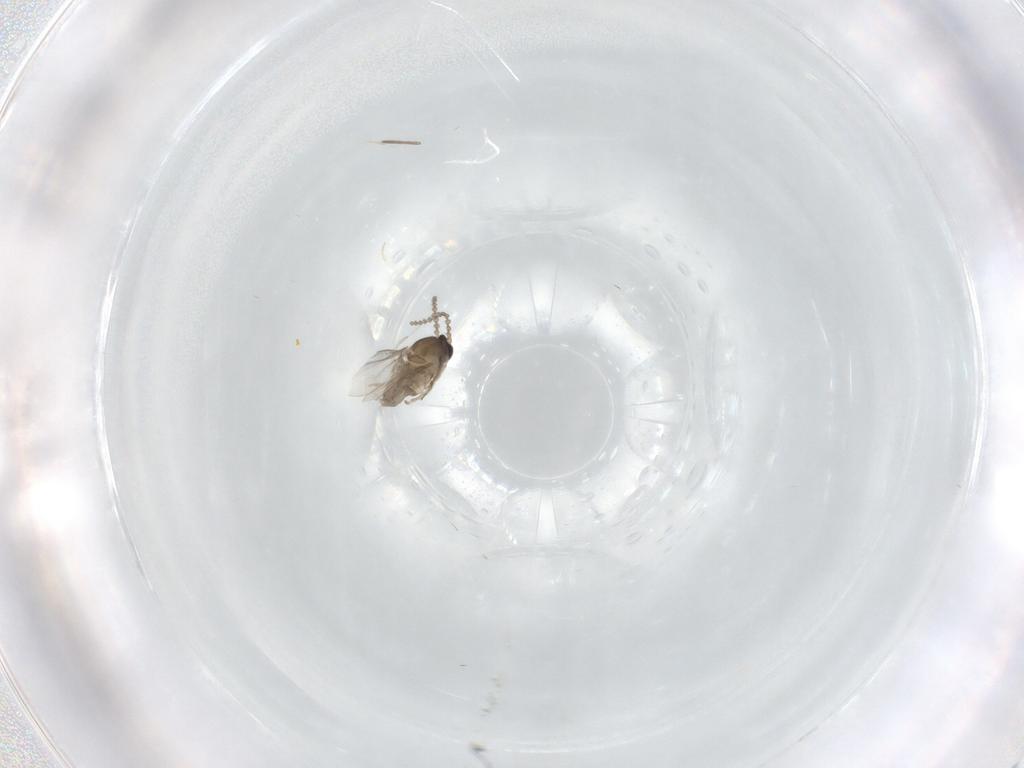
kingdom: Animalia
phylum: Arthropoda
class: Insecta
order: Diptera
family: Cecidomyiidae
